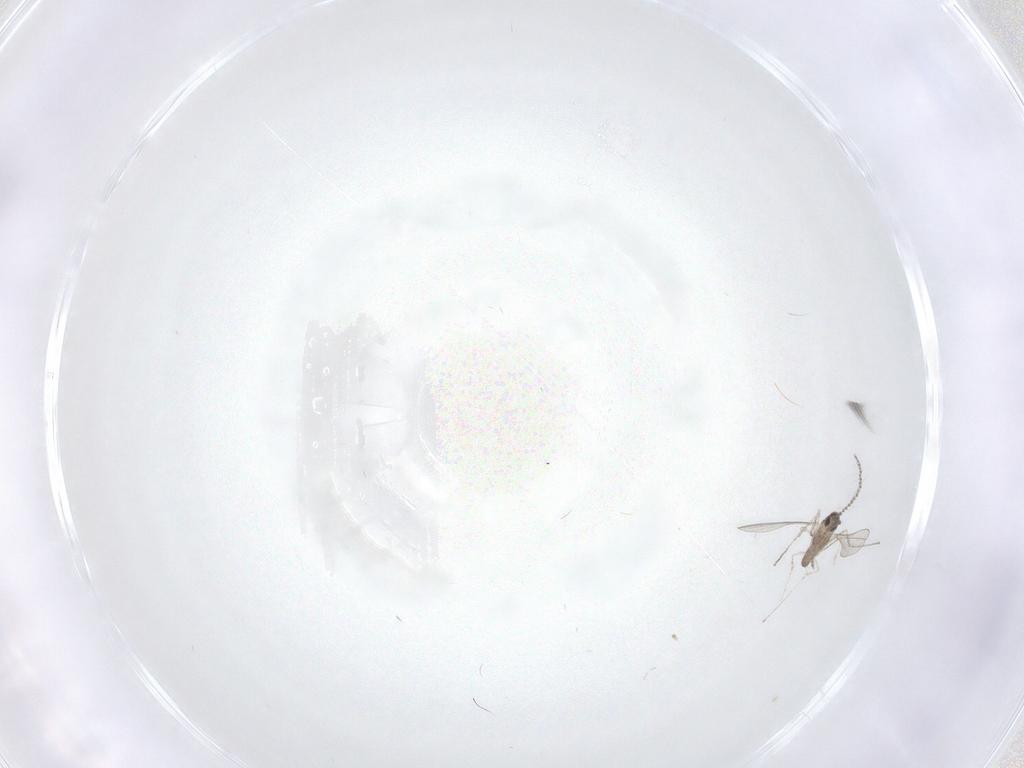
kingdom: Animalia
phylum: Arthropoda
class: Insecta
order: Diptera
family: Cecidomyiidae
